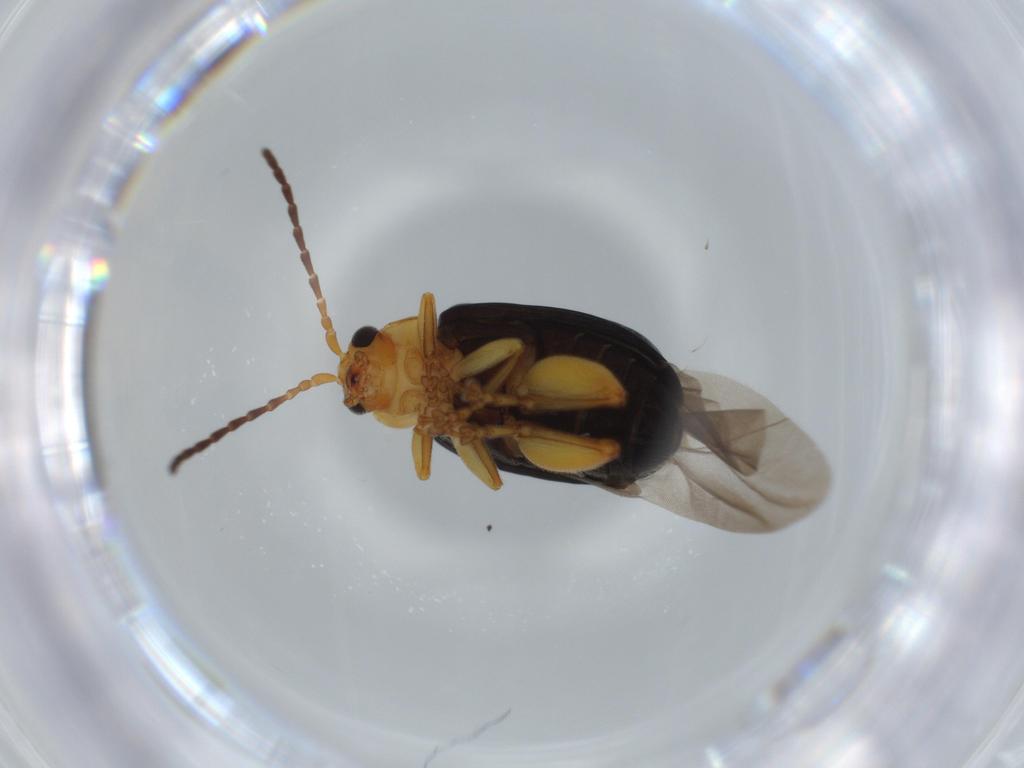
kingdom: Animalia
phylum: Arthropoda
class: Insecta
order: Coleoptera
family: Chrysomelidae
